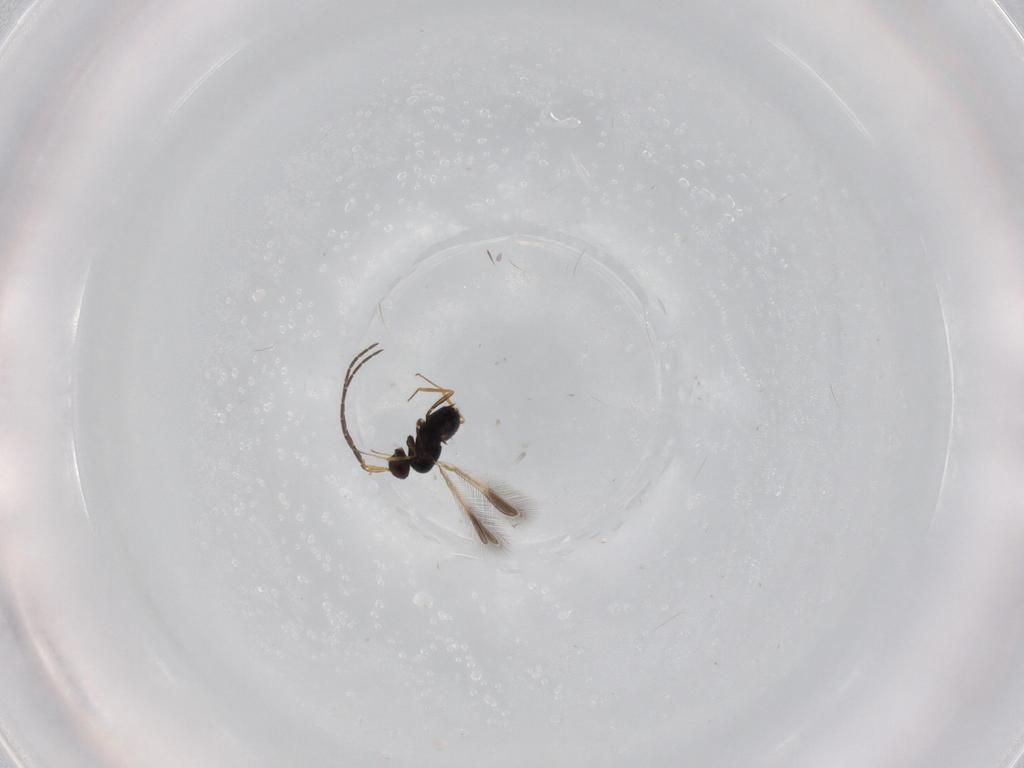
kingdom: Animalia
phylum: Arthropoda
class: Insecta
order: Hymenoptera
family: Mymaridae
